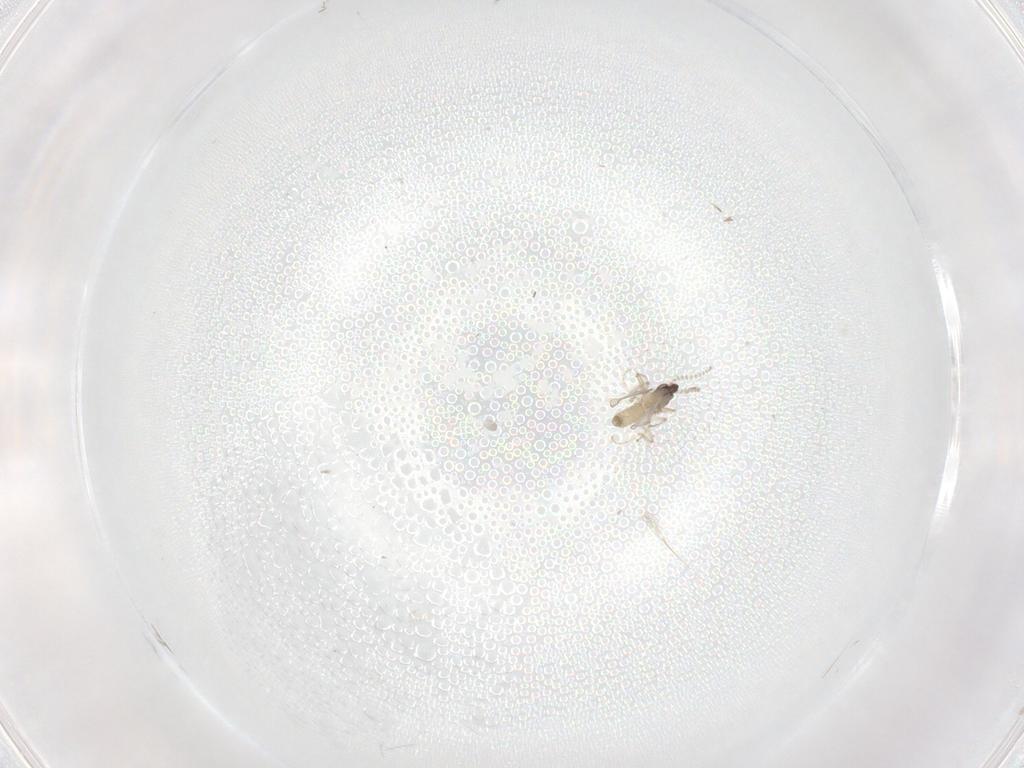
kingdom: Animalia
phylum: Arthropoda
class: Insecta
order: Diptera
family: Cecidomyiidae
